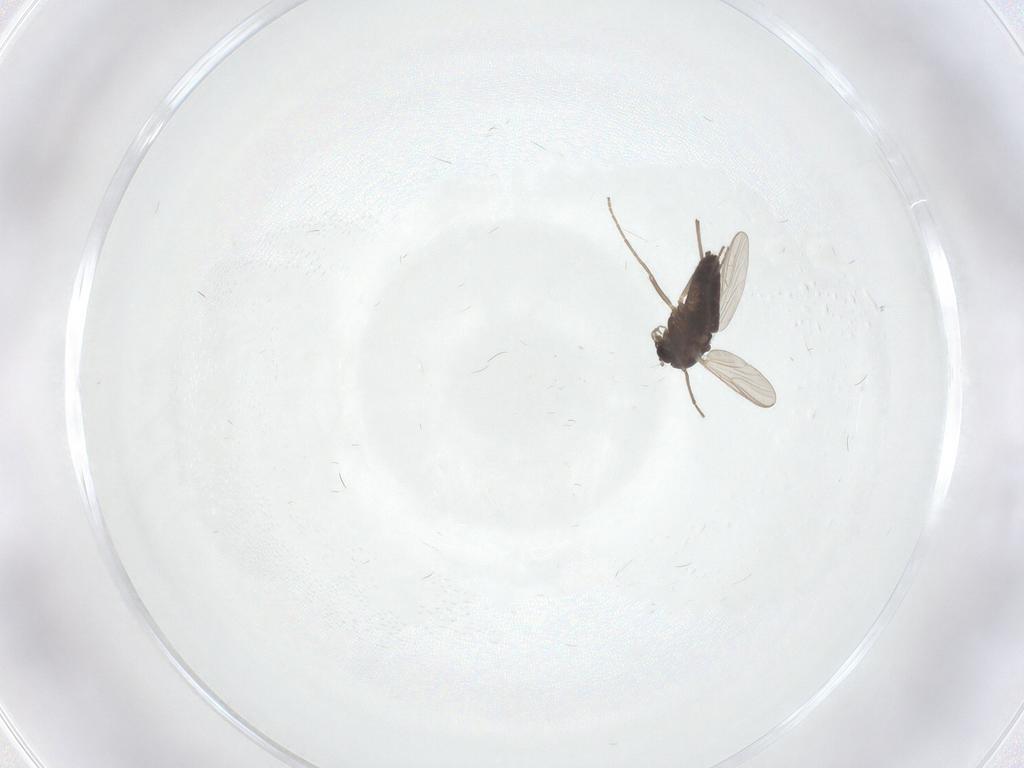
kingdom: Animalia
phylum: Arthropoda
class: Insecta
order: Diptera
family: Chironomidae
